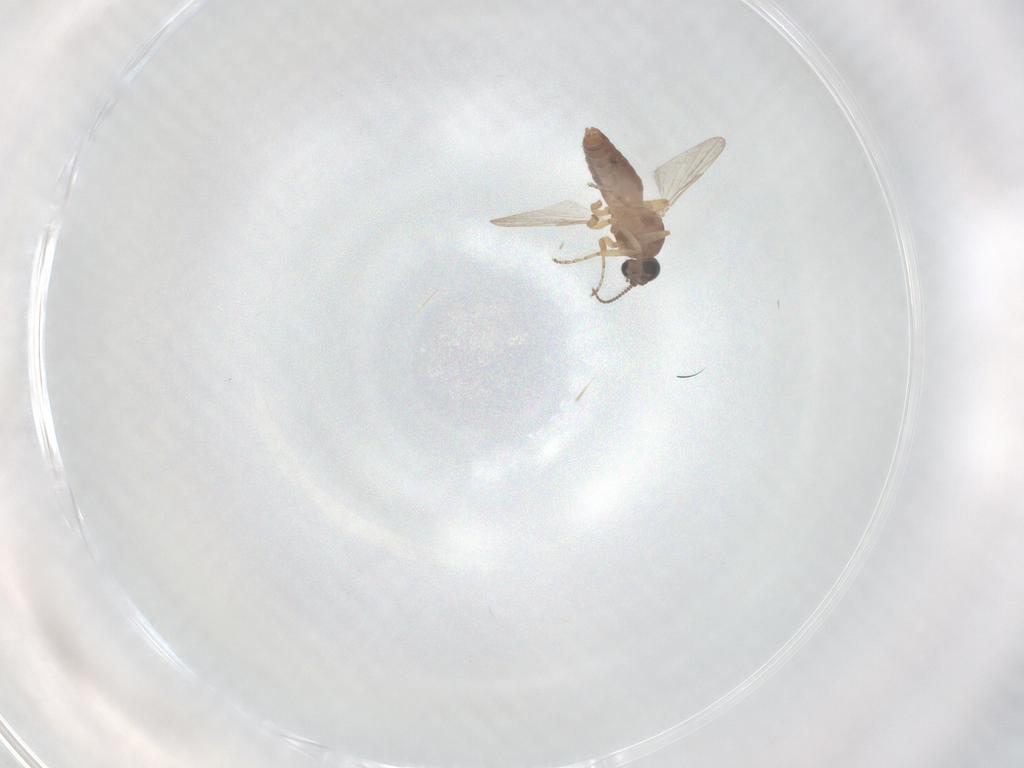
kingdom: Animalia
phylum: Arthropoda
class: Insecta
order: Diptera
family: Ceratopogonidae
